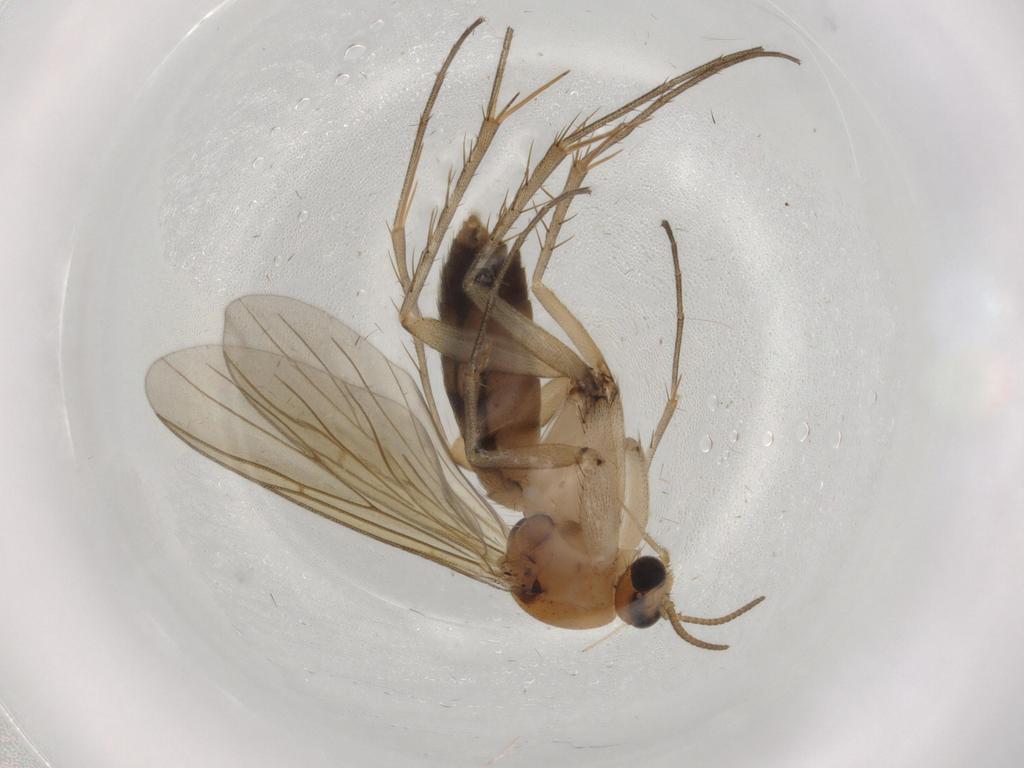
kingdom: Animalia
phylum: Arthropoda
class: Insecta
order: Diptera
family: Mycetophilidae
